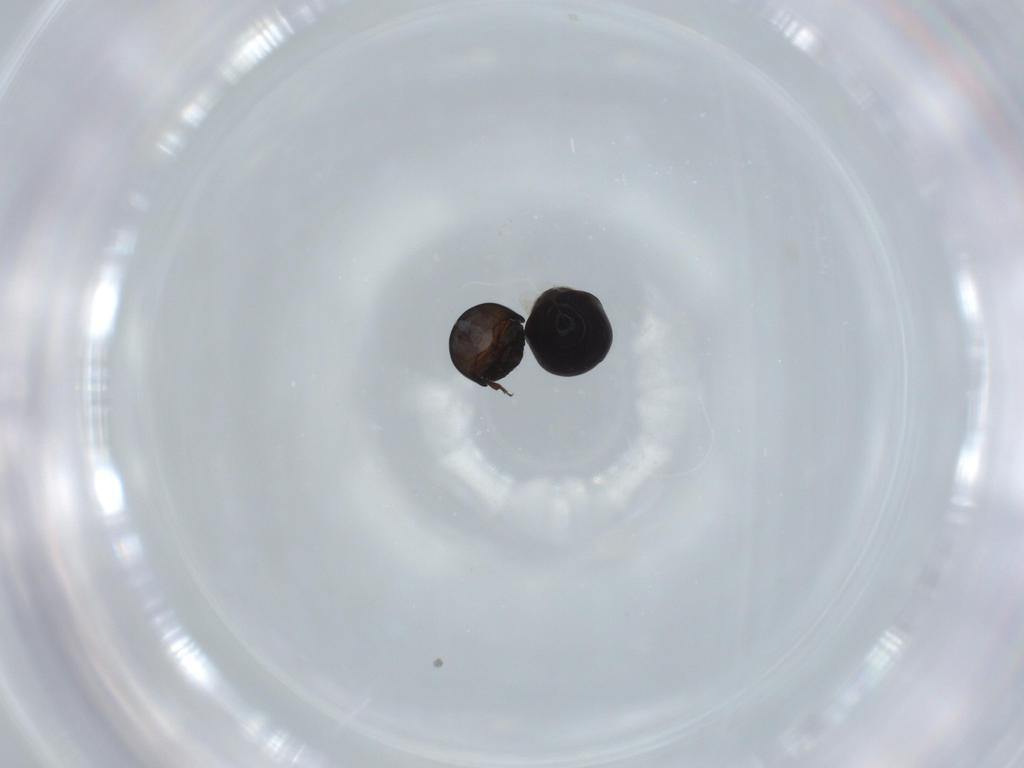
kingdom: Animalia
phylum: Arthropoda
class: Insecta
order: Coleoptera
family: Cybocephalidae
